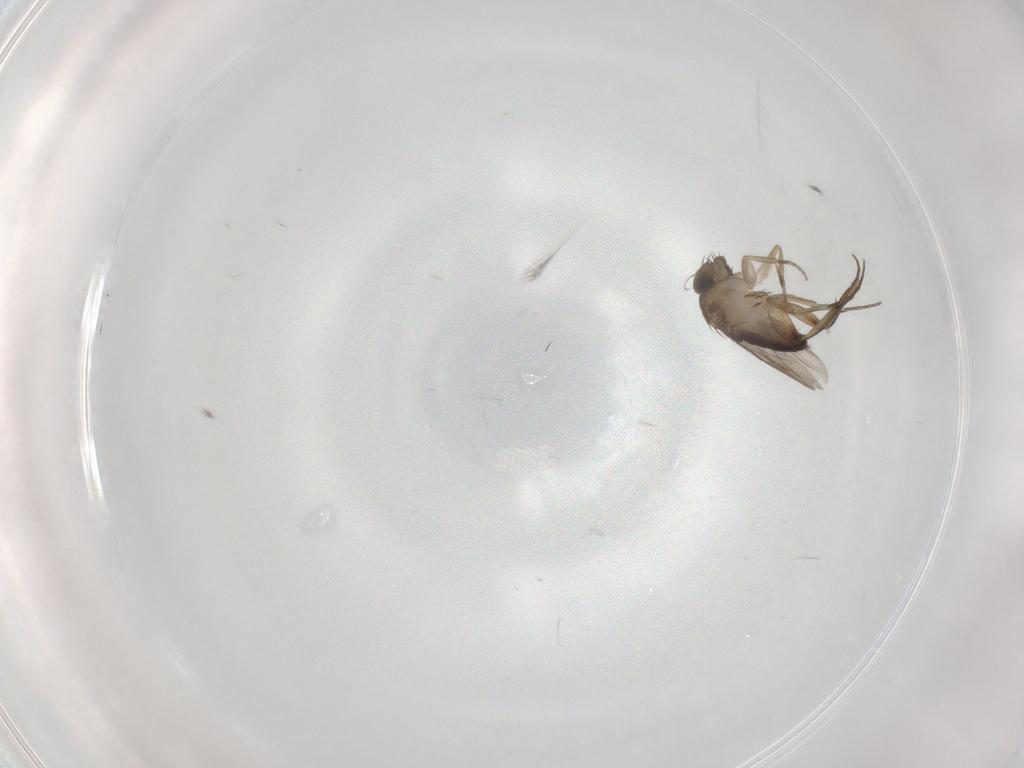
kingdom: Animalia
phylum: Arthropoda
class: Insecta
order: Diptera
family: Phoridae
